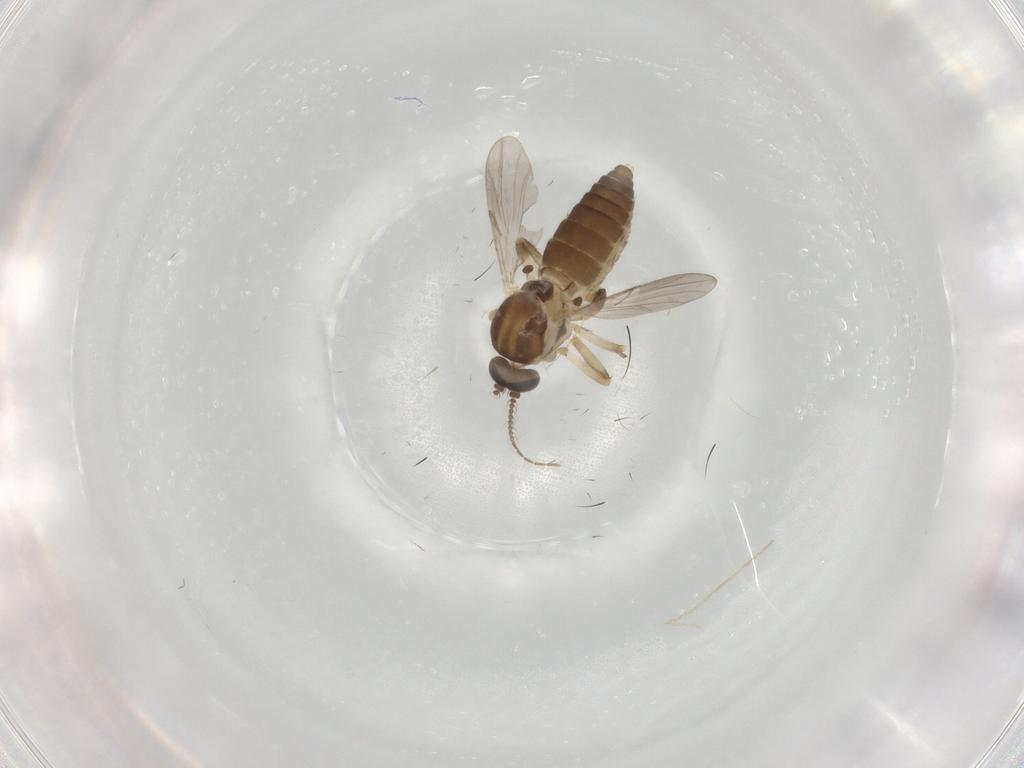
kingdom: Animalia
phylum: Arthropoda
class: Insecta
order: Diptera
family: Ceratopogonidae
